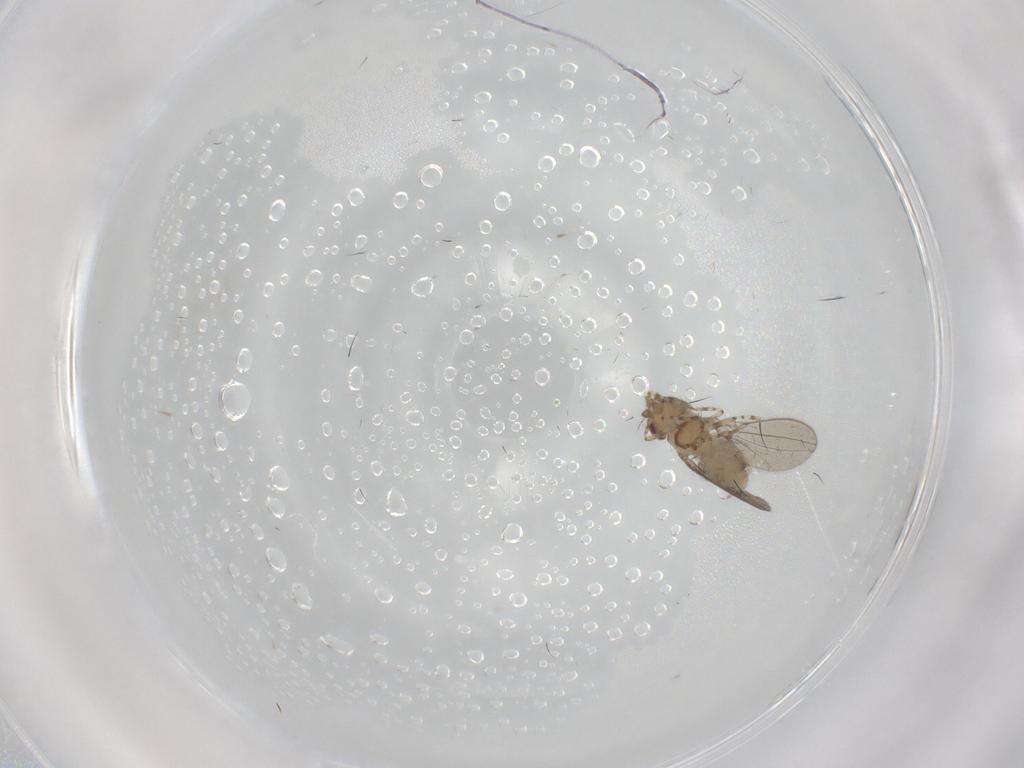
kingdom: Animalia
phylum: Arthropoda
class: Insecta
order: Diptera
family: Asteiidae
